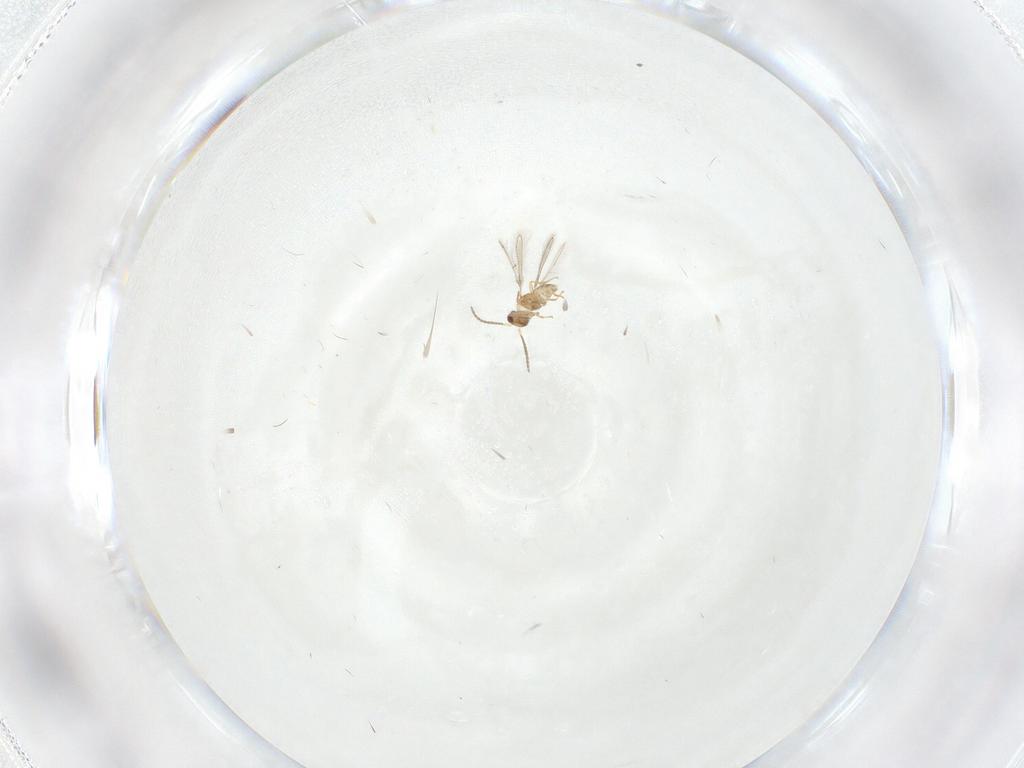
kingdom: Animalia
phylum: Arthropoda
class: Insecta
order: Hymenoptera
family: Mymaridae
